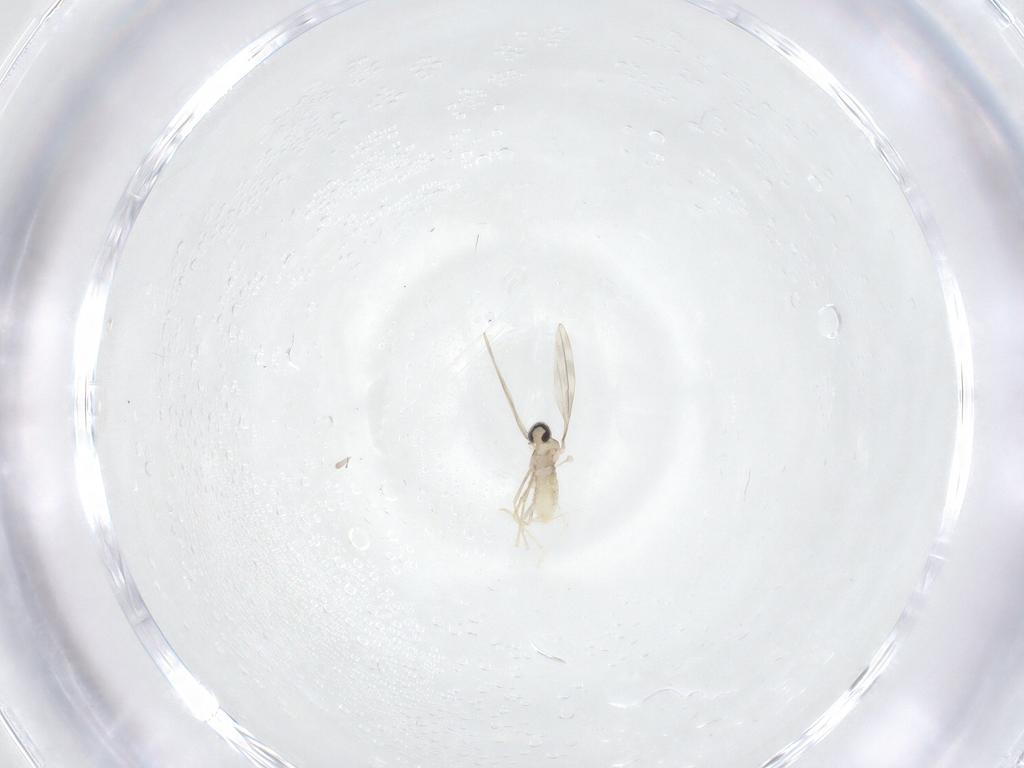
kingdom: Animalia
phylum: Arthropoda
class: Insecta
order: Diptera
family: Cecidomyiidae
